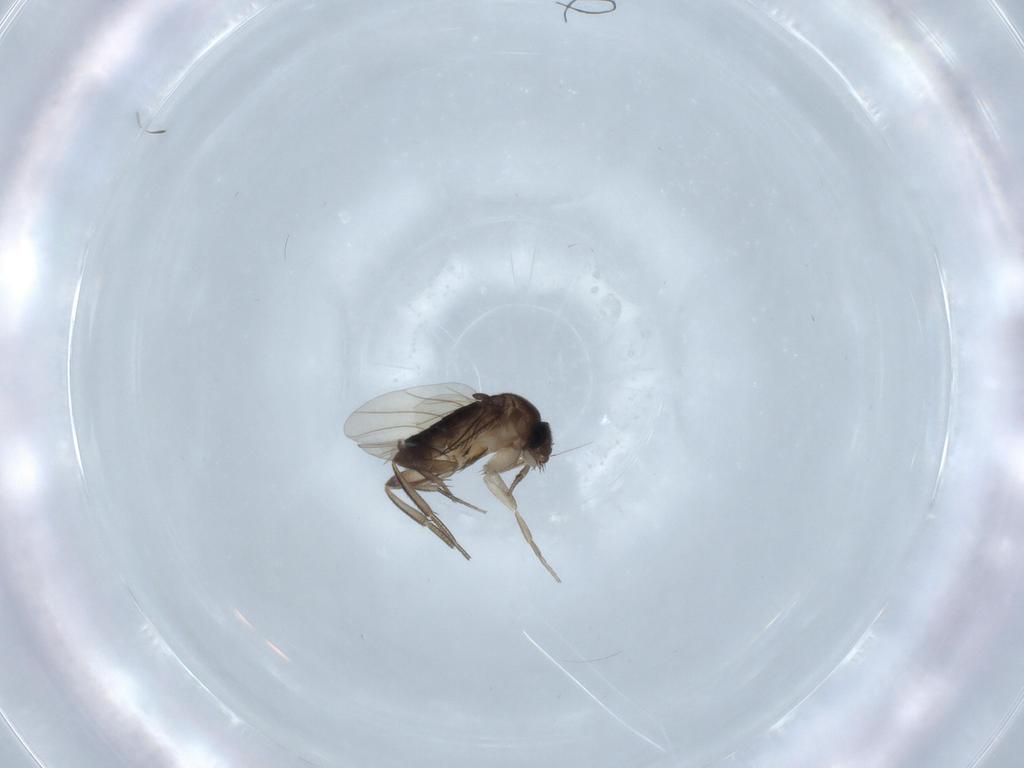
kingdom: Animalia
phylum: Arthropoda
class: Insecta
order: Diptera
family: Phoridae
